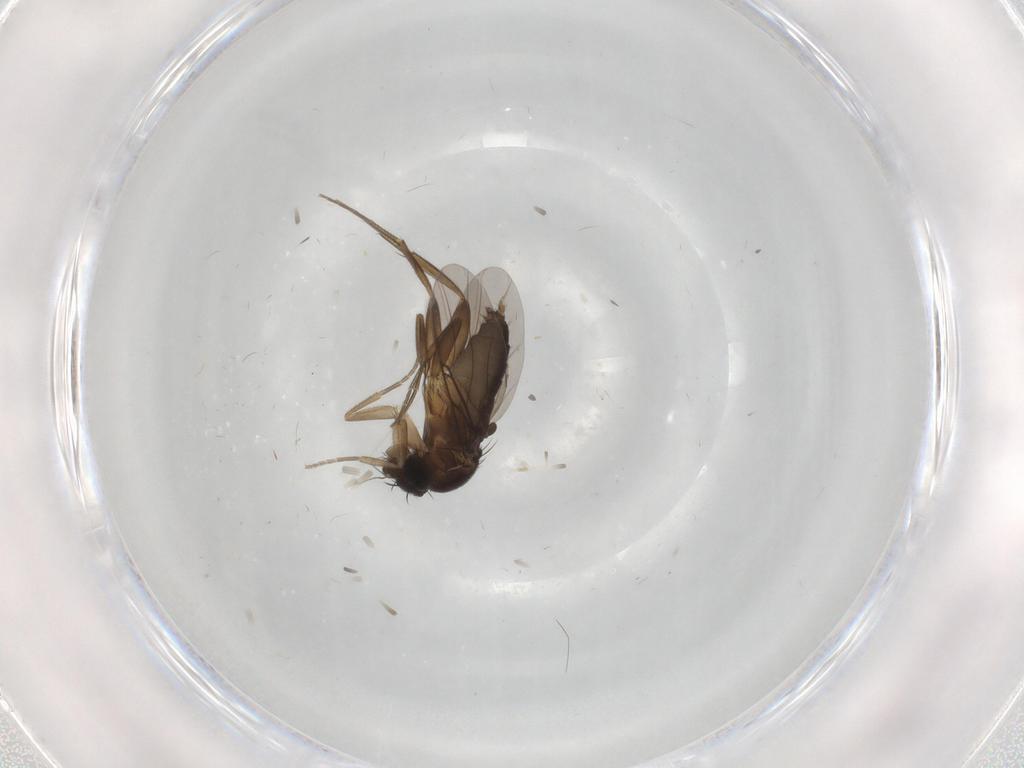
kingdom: Animalia
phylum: Arthropoda
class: Insecta
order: Diptera
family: Phoridae
